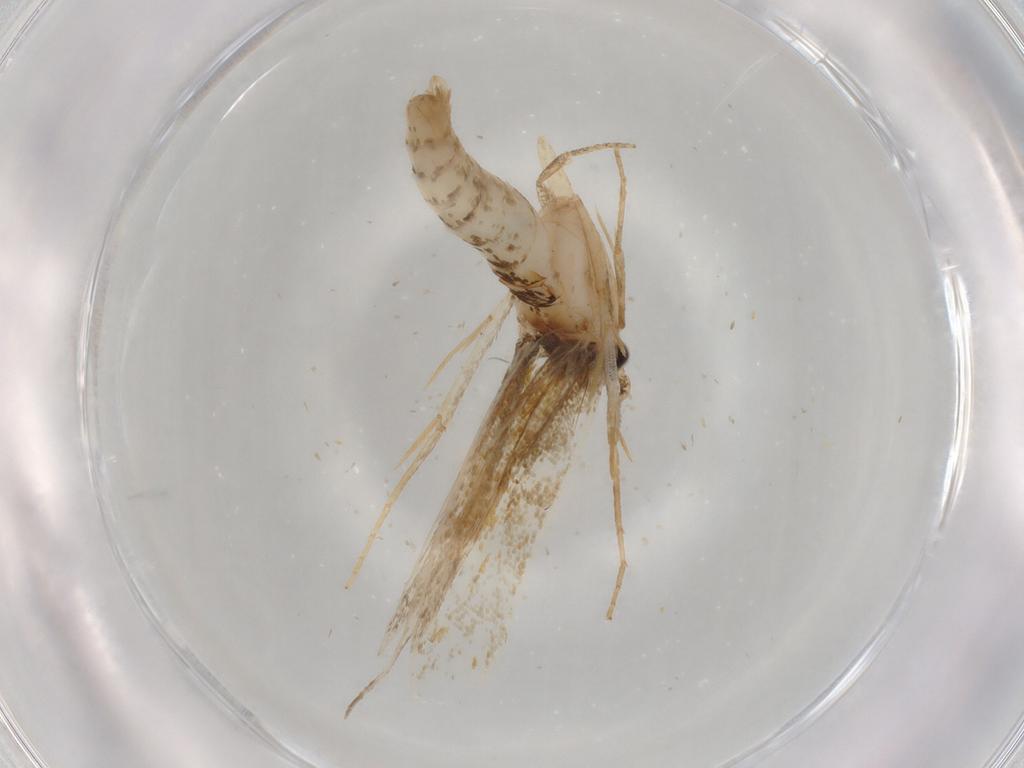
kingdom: Animalia
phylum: Arthropoda
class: Insecta
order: Lepidoptera
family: Tineidae
